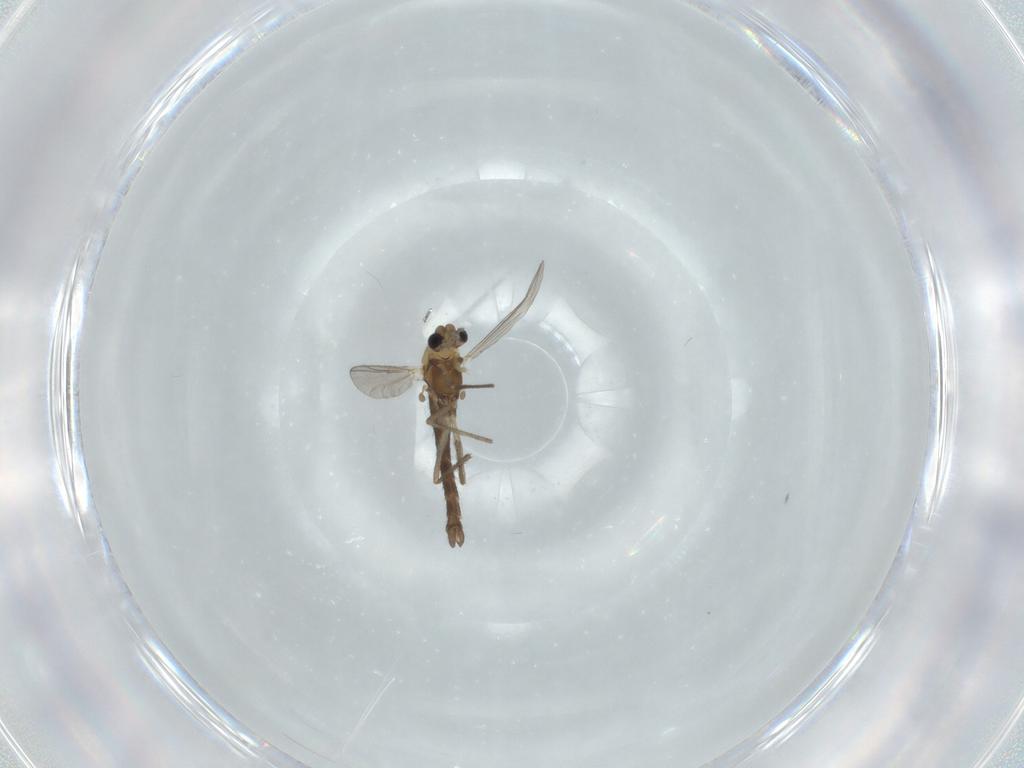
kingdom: Animalia
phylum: Arthropoda
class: Insecta
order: Diptera
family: Chironomidae
